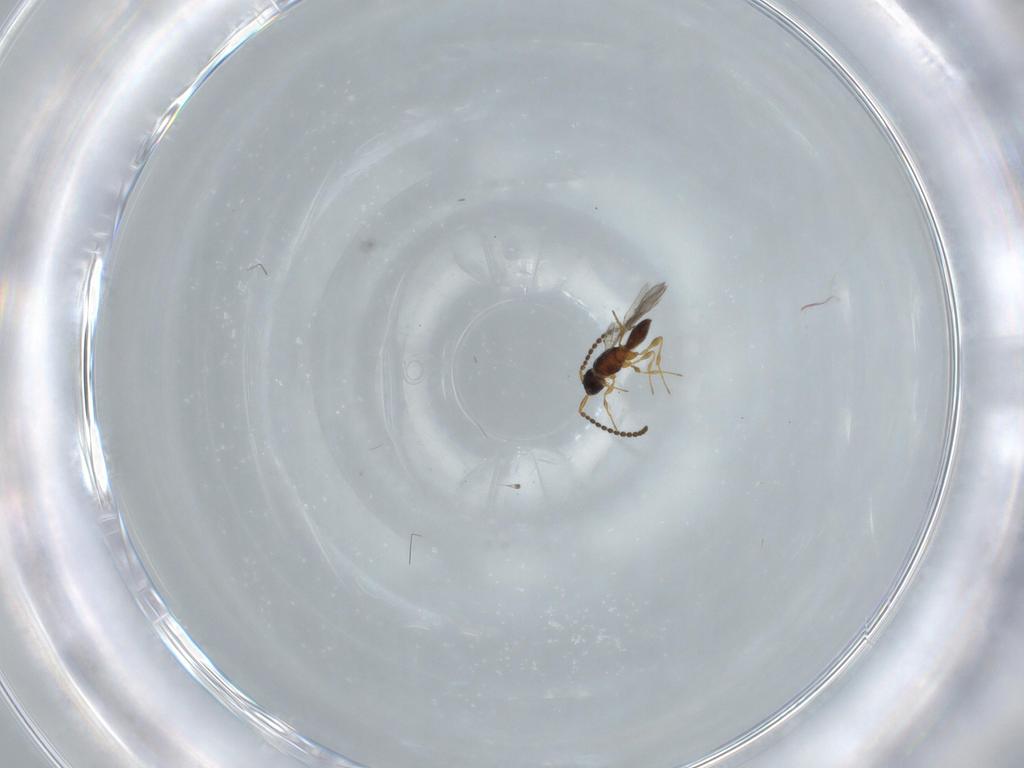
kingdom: Animalia
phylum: Arthropoda
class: Insecta
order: Hymenoptera
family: Diapriidae
